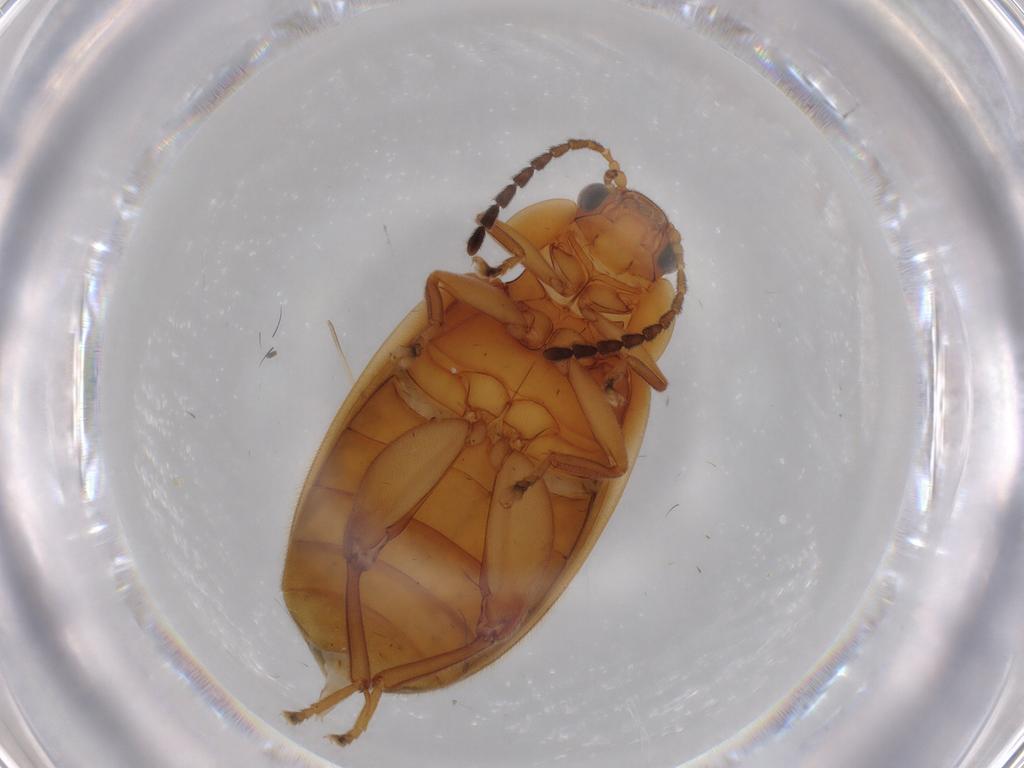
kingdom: Animalia
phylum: Arthropoda
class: Insecta
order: Coleoptera
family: Scirtidae
